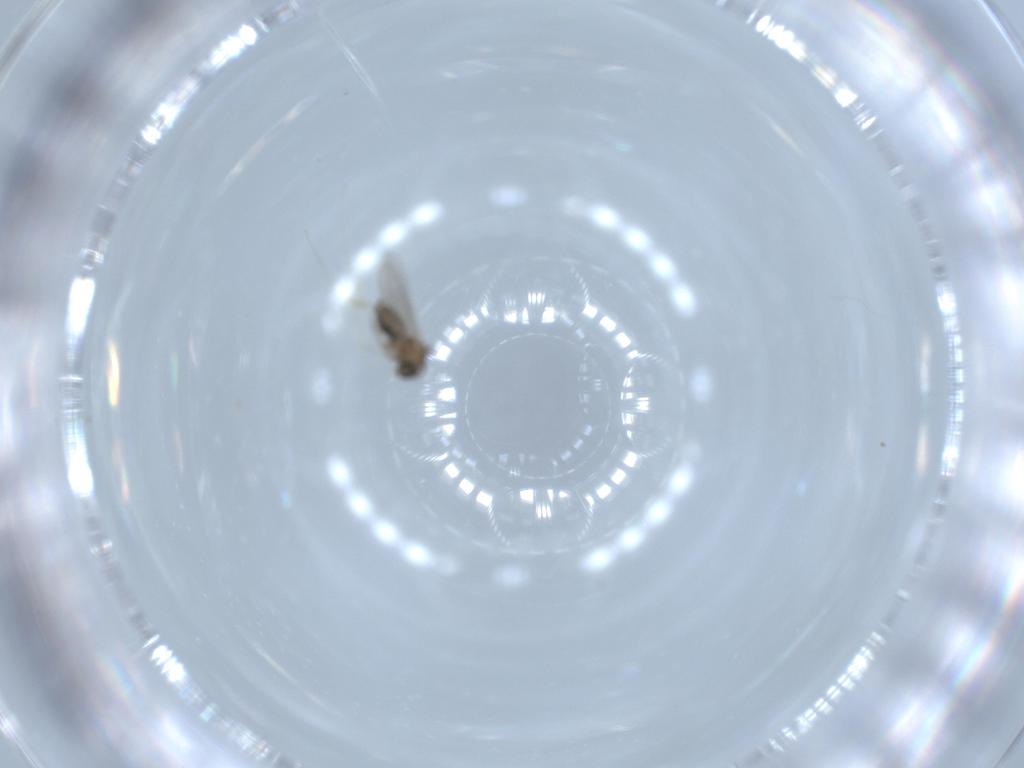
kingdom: Animalia
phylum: Arthropoda
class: Insecta
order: Diptera
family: Cecidomyiidae
